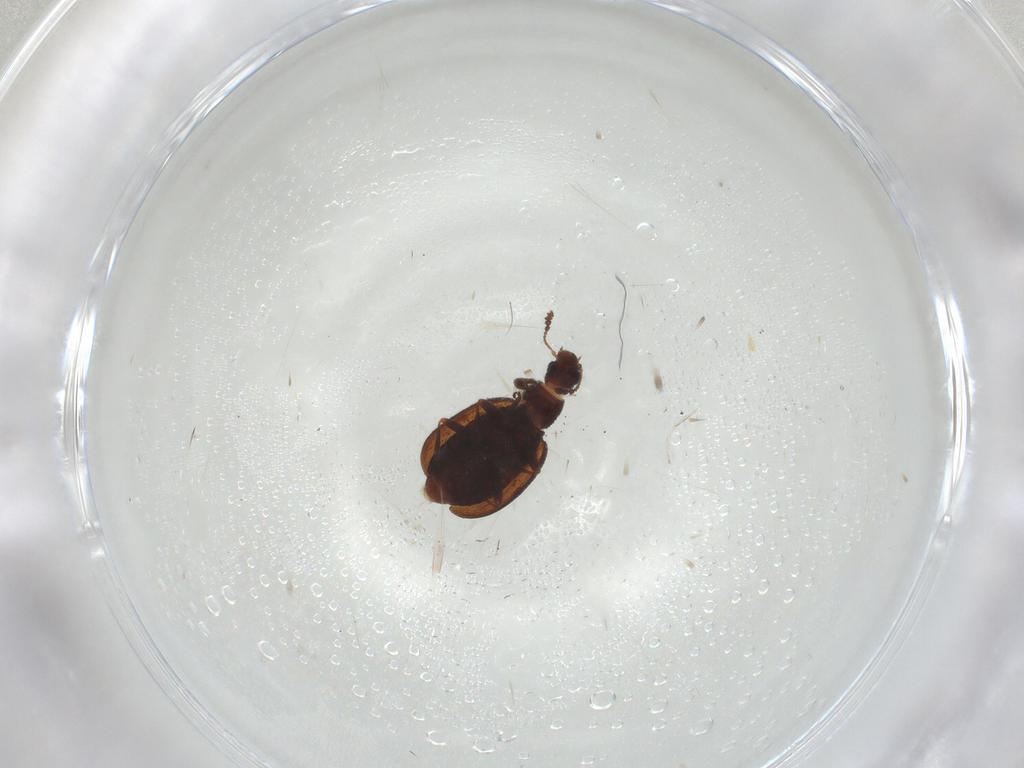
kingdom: Animalia
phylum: Arthropoda
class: Insecta
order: Coleoptera
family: Latridiidae
